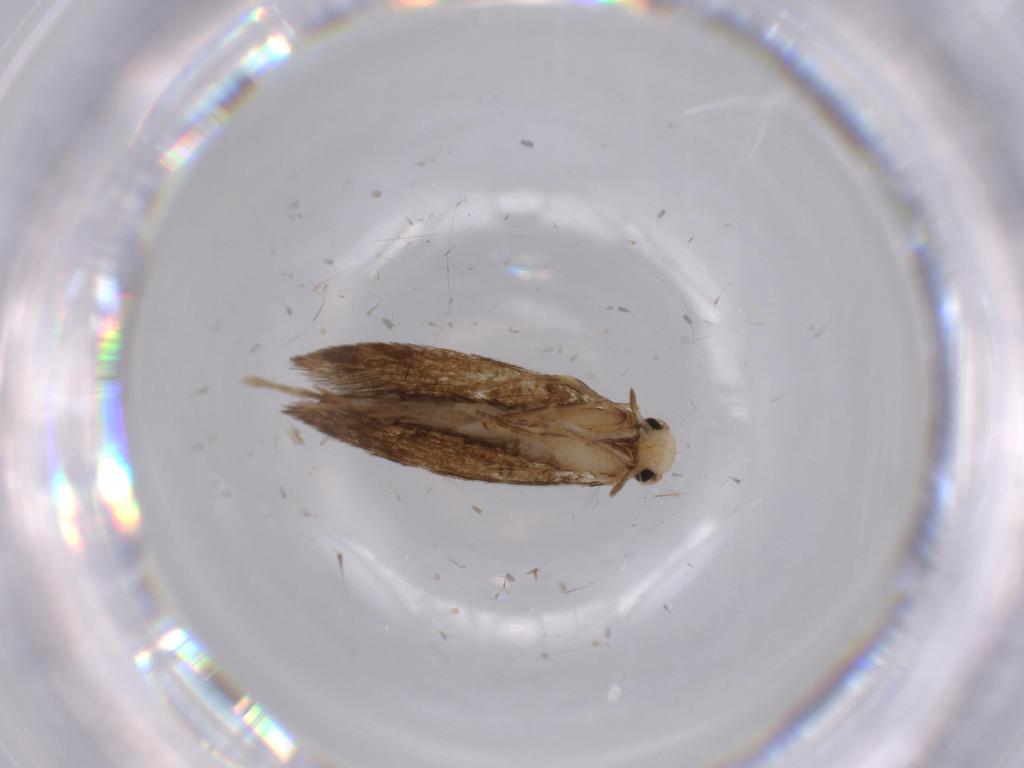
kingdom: Animalia
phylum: Arthropoda
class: Insecta
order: Lepidoptera
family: Tineidae
